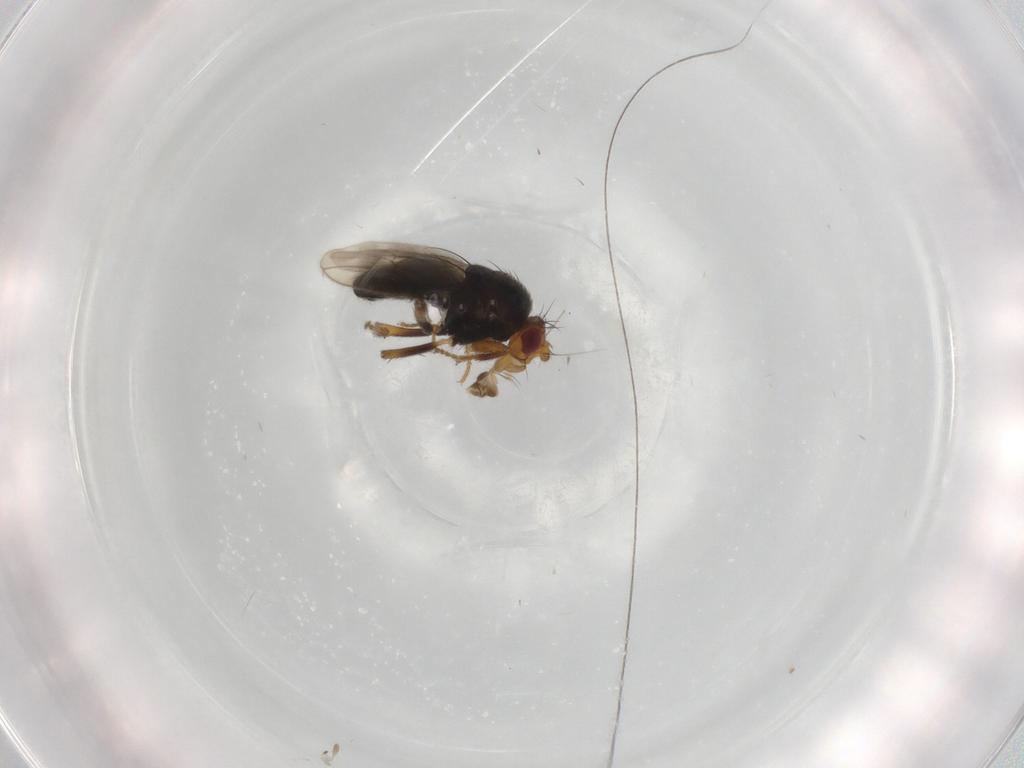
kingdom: Animalia
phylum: Arthropoda
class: Insecta
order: Diptera
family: Sphaeroceridae
